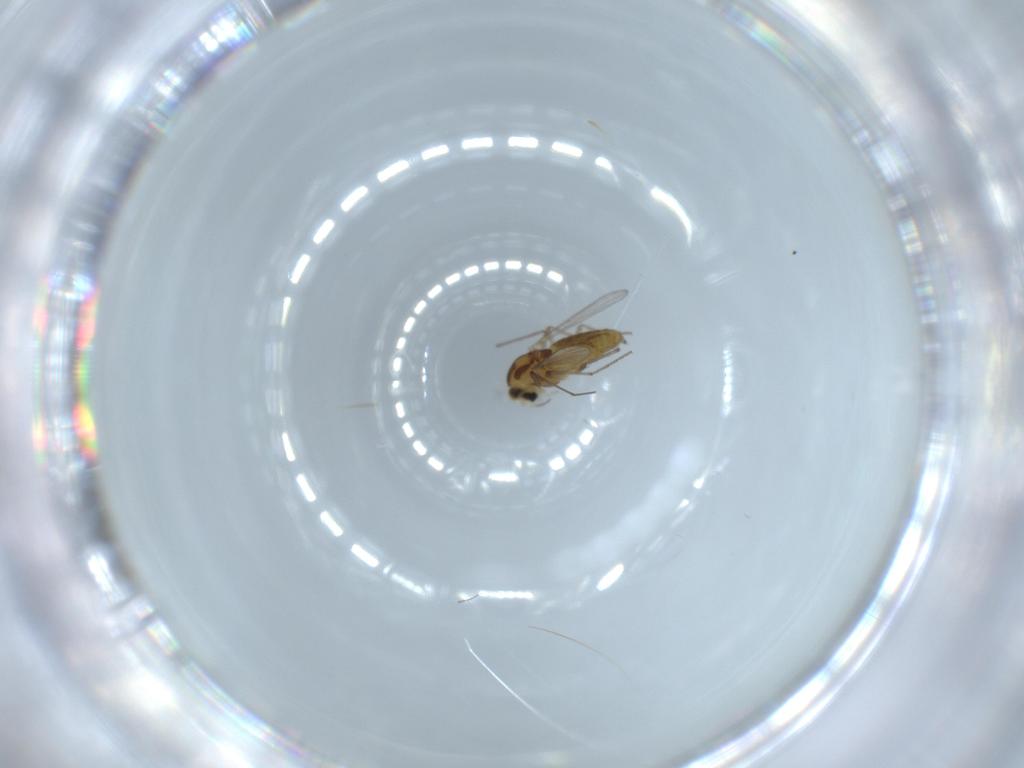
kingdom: Animalia
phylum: Arthropoda
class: Insecta
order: Diptera
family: Chironomidae
